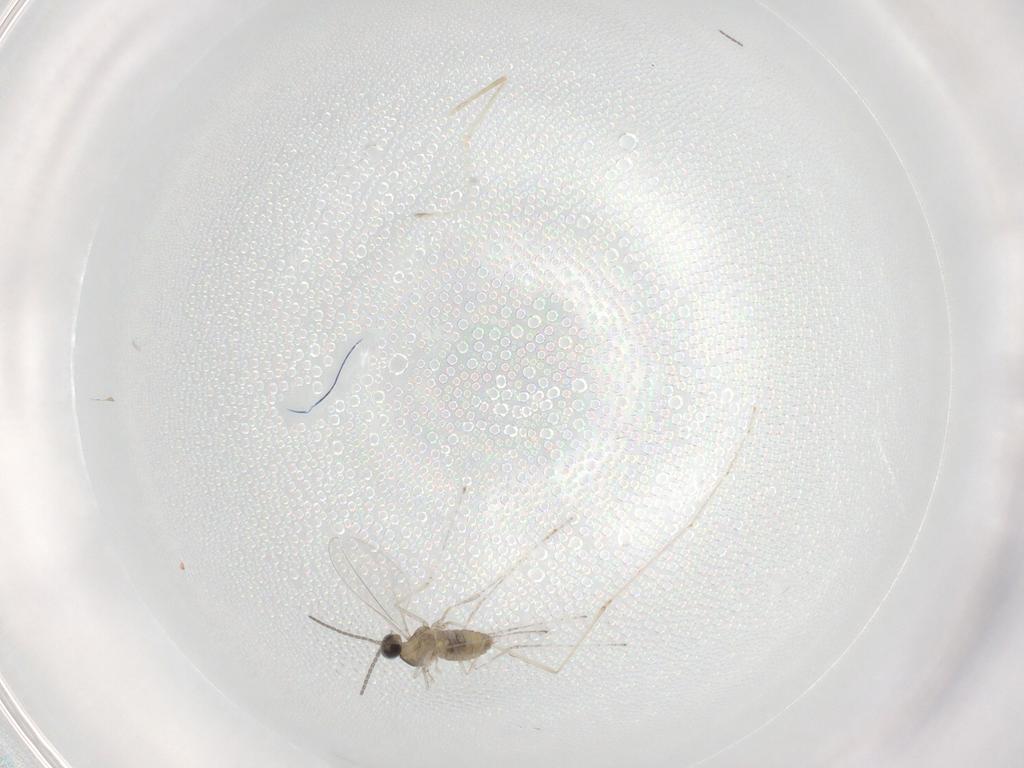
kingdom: Animalia
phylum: Arthropoda
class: Insecta
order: Diptera
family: Cecidomyiidae
